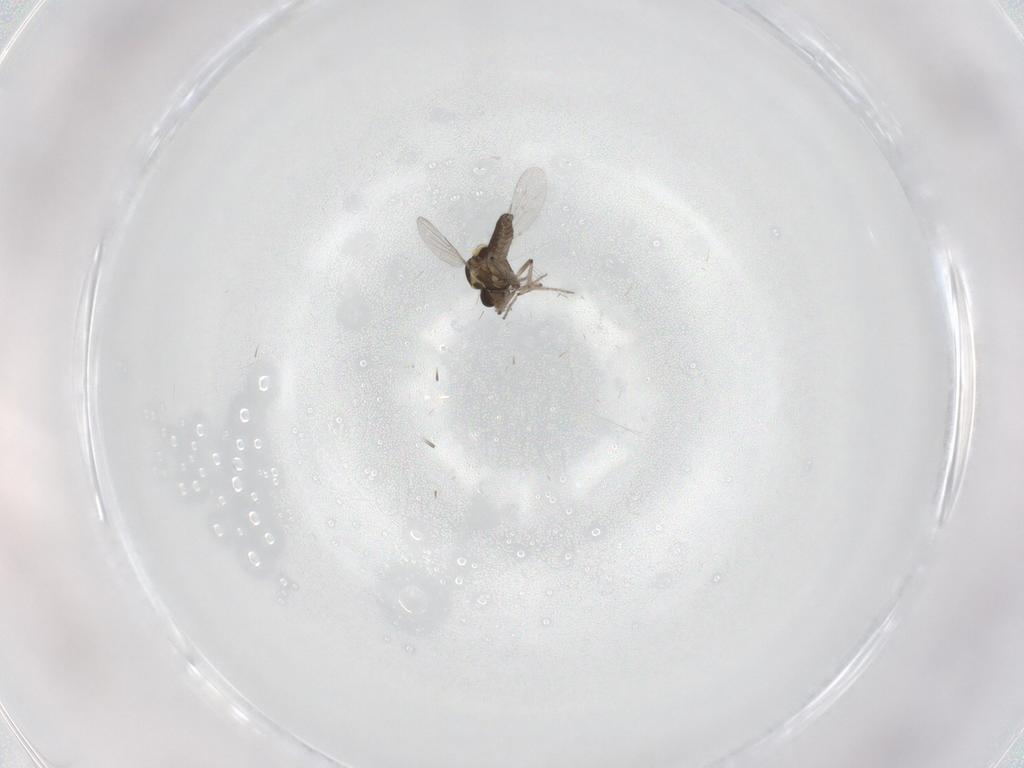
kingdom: Animalia
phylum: Arthropoda
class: Insecta
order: Diptera
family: Ceratopogonidae
